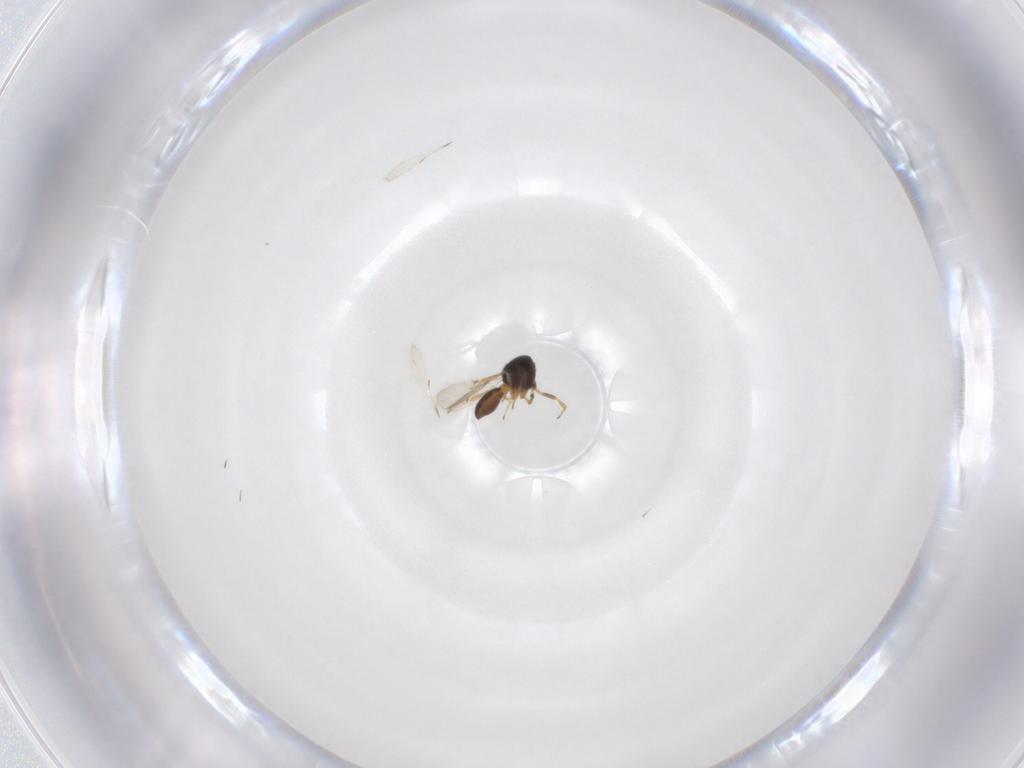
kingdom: Animalia
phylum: Arthropoda
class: Insecta
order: Hymenoptera
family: Scelionidae
